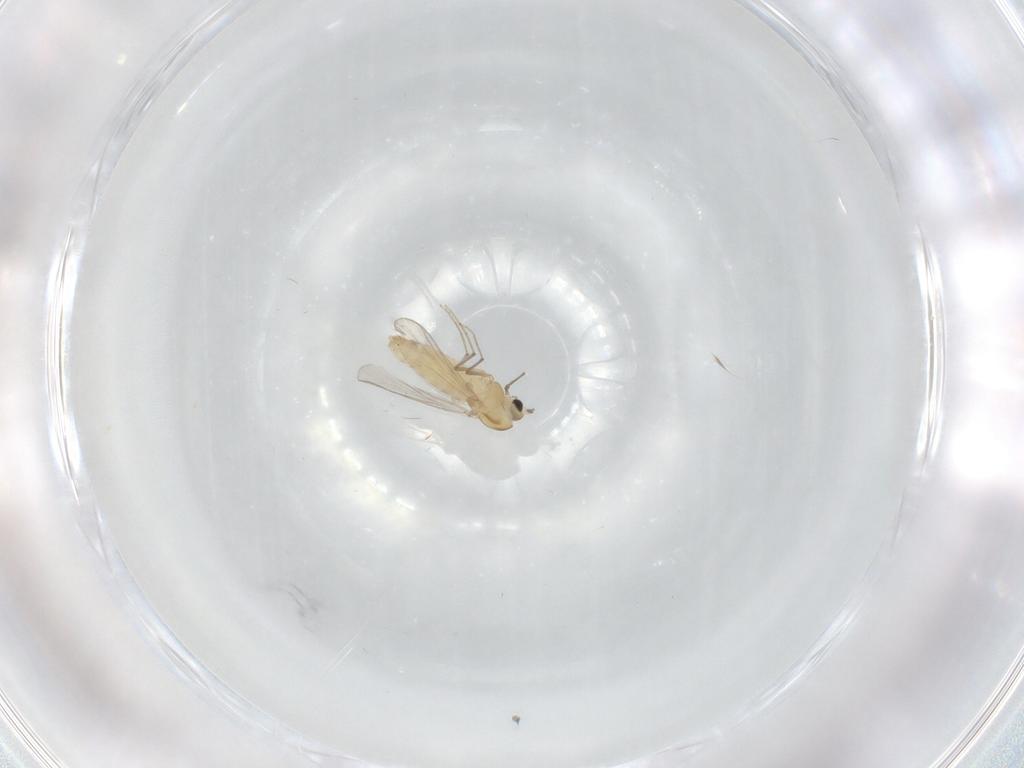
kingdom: Animalia
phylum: Arthropoda
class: Insecta
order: Diptera
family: Chironomidae
